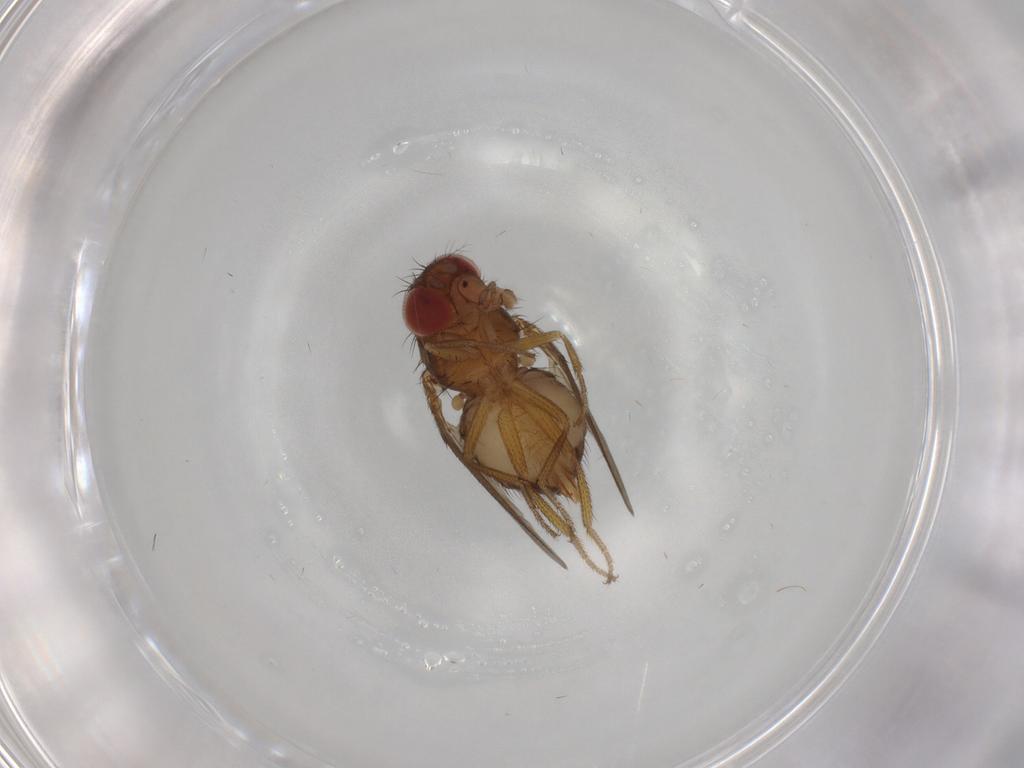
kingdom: Animalia
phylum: Arthropoda
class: Insecta
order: Diptera
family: Drosophilidae
